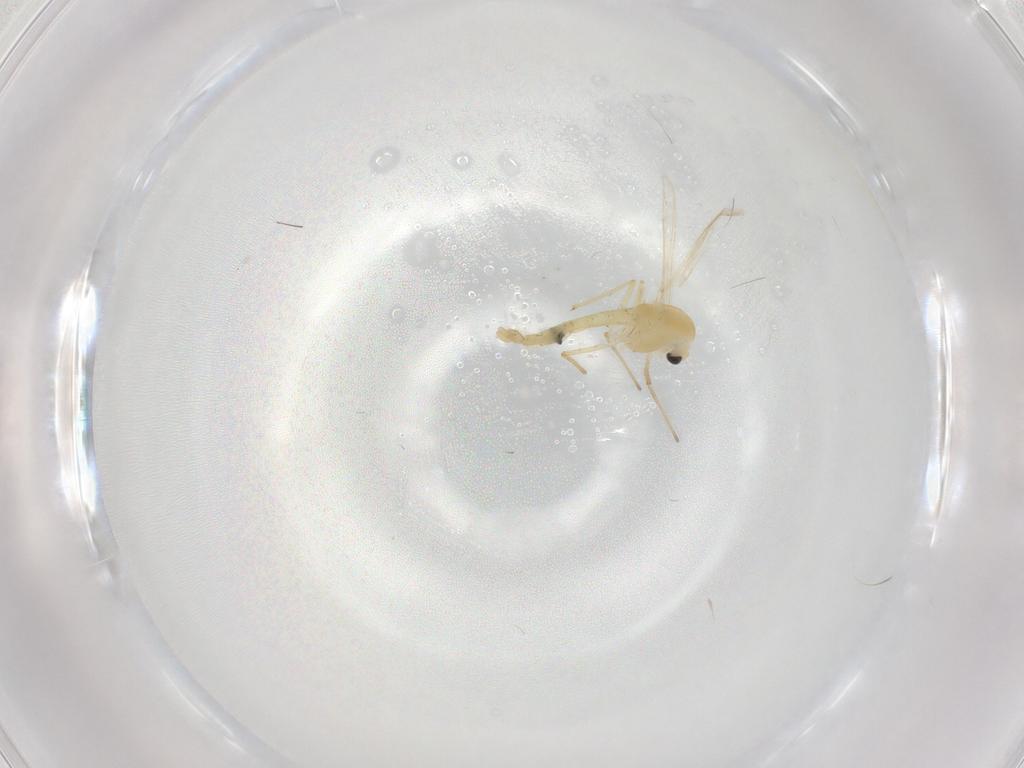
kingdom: Animalia
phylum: Arthropoda
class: Insecta
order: Diptera
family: Chironomidae
